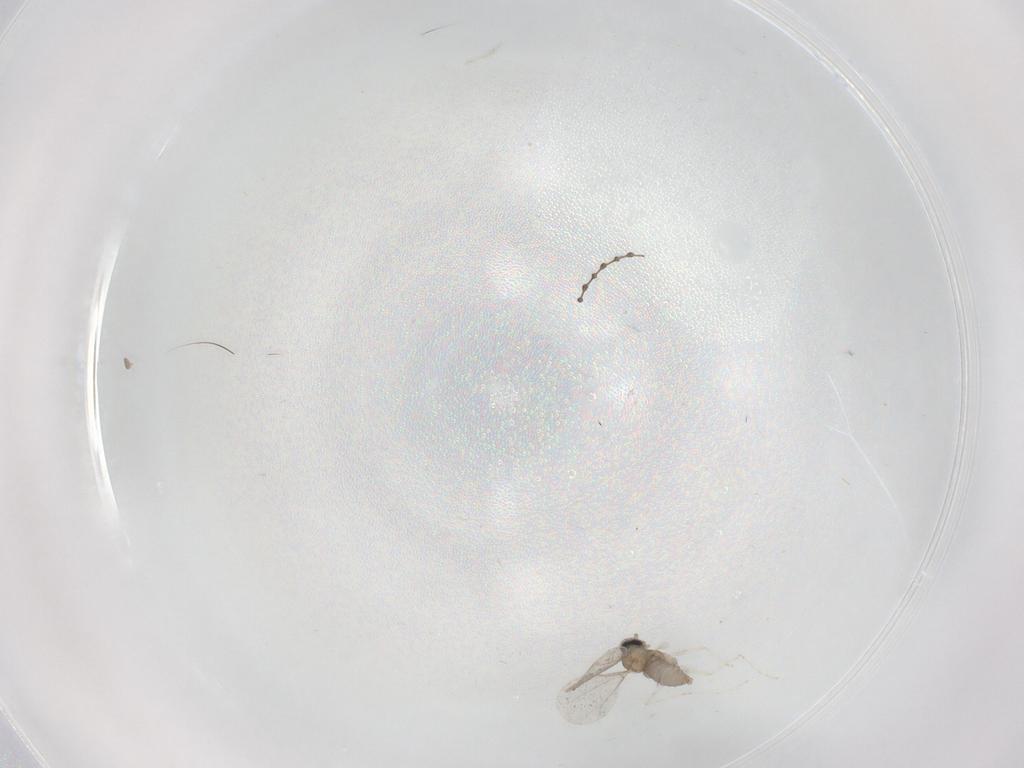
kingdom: Animalia
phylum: Arthropoda
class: Insecta
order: Diptera
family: Cecidomyiidae
